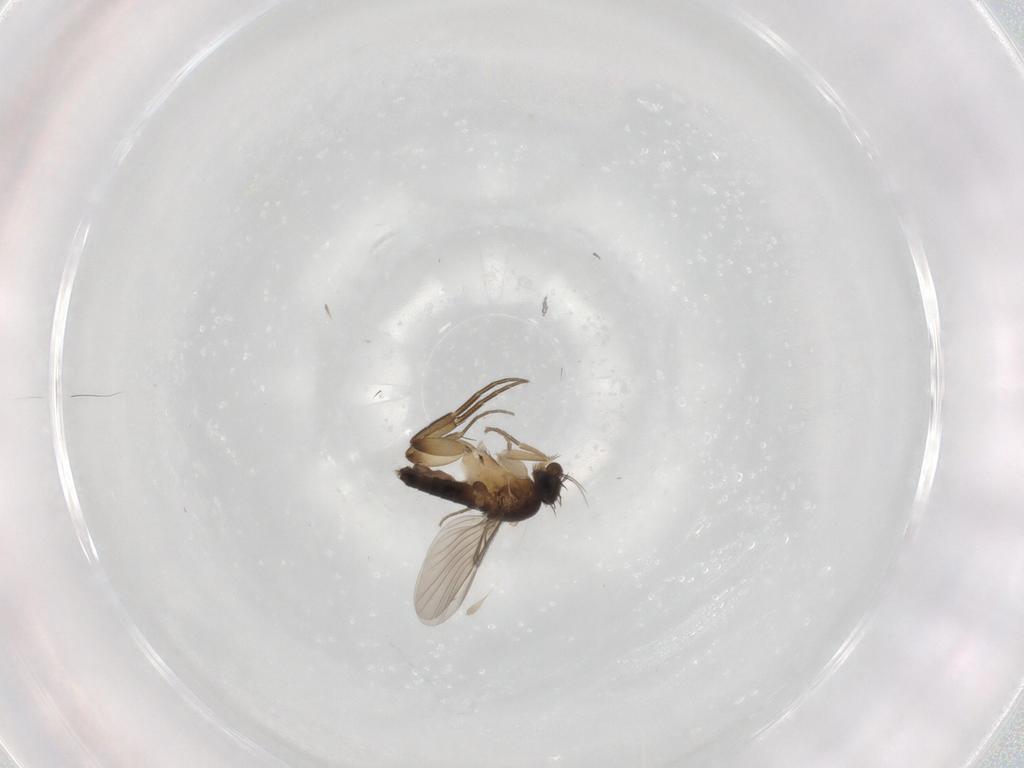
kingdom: Animalia
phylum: Arthropoda
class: Insecta
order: Diptera
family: Phoridae
